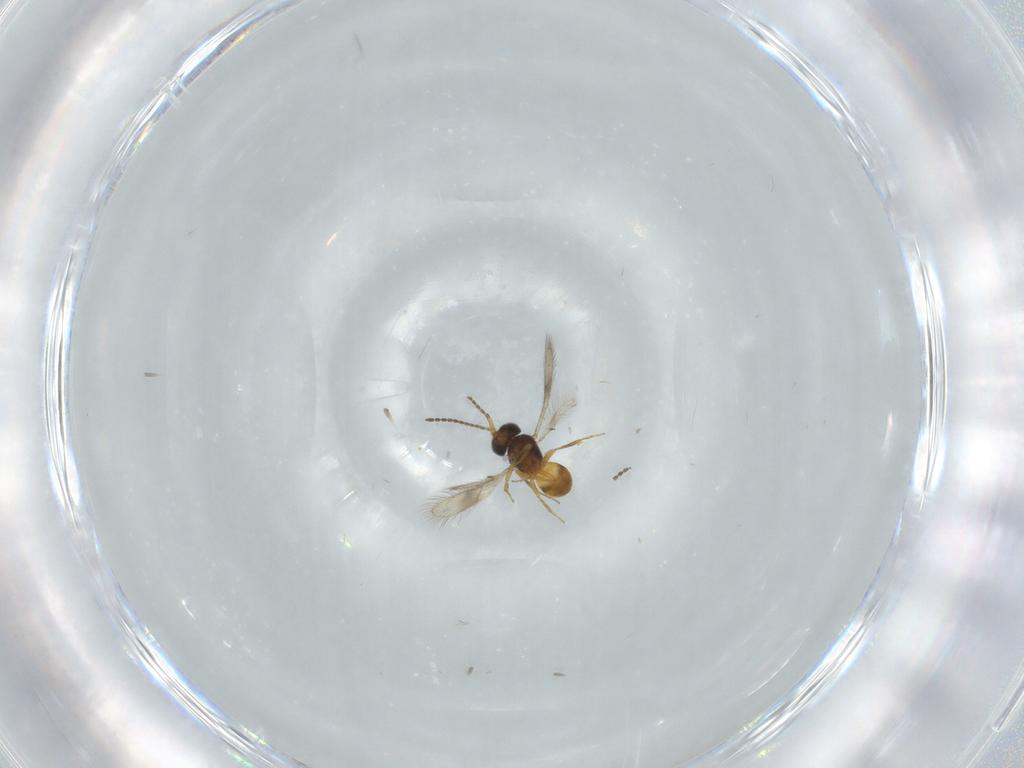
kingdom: Animalia
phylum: Arthropoda
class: Insecta
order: Hymenoptera
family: Scelionidae
